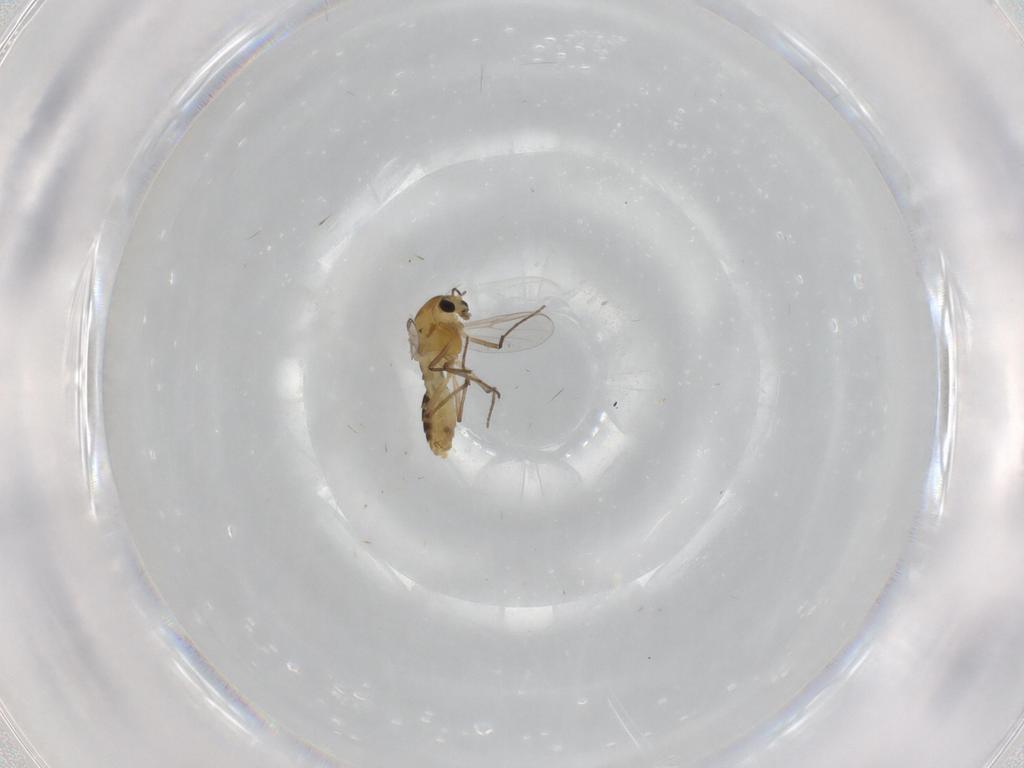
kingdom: Animalia
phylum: Arthropoda
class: Insecta
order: Diptera
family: Chironomidae
